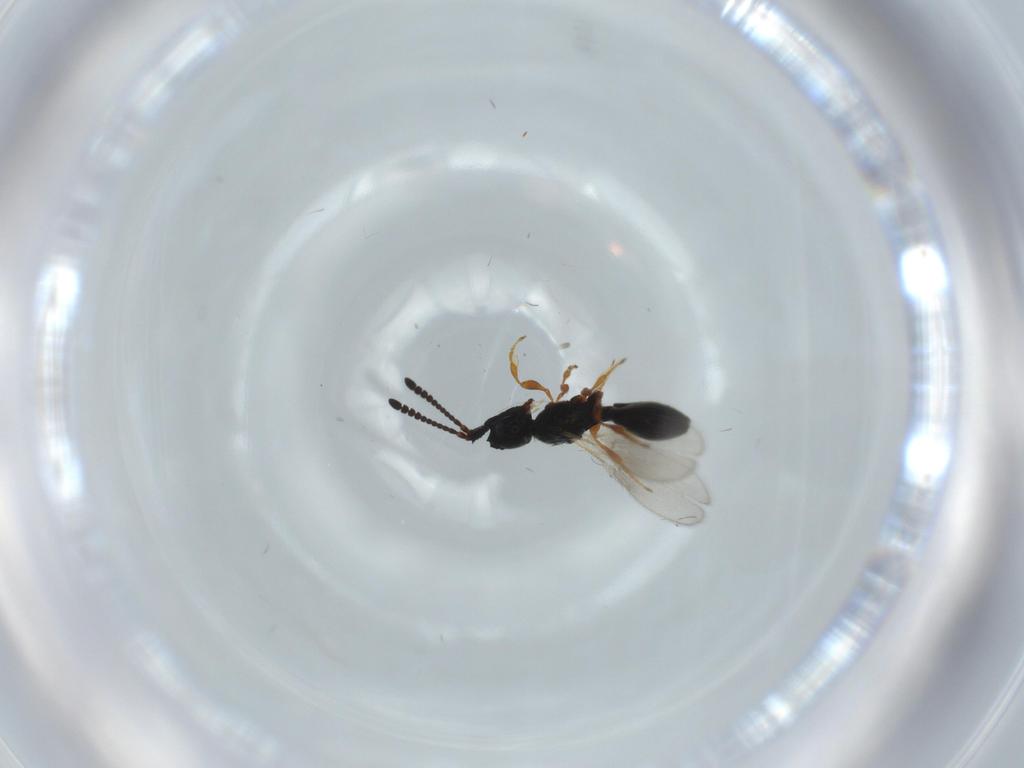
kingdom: Animalia
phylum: Arthropoda
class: Insecta
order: Hymenoptera
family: Diapriidae
